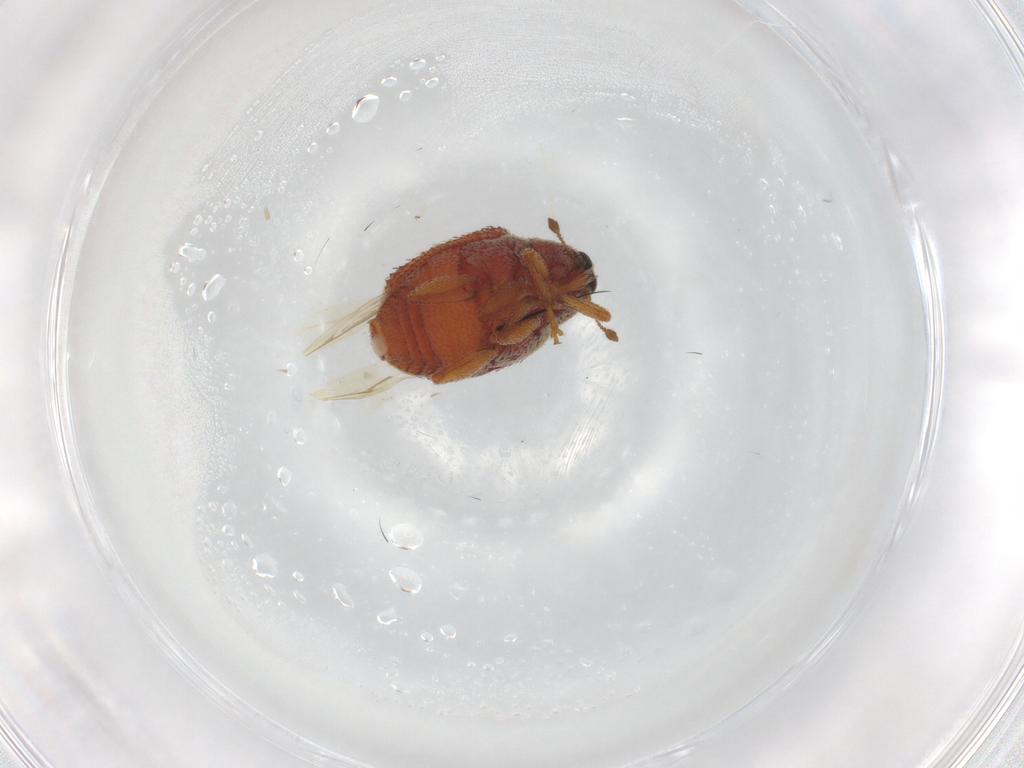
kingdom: Animalia
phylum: Arthropoda
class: Insecta
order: Coleoptera
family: Curculionidae
